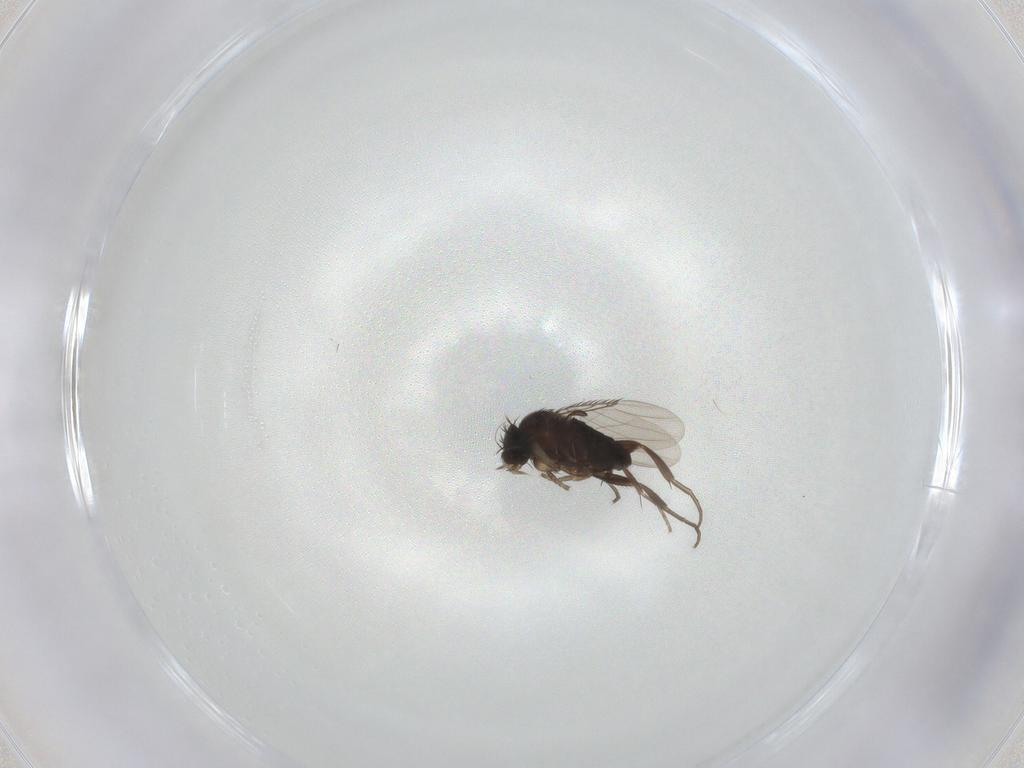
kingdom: Animalia
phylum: Arthropoda
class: Insecta
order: Diptera
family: Phoridae
